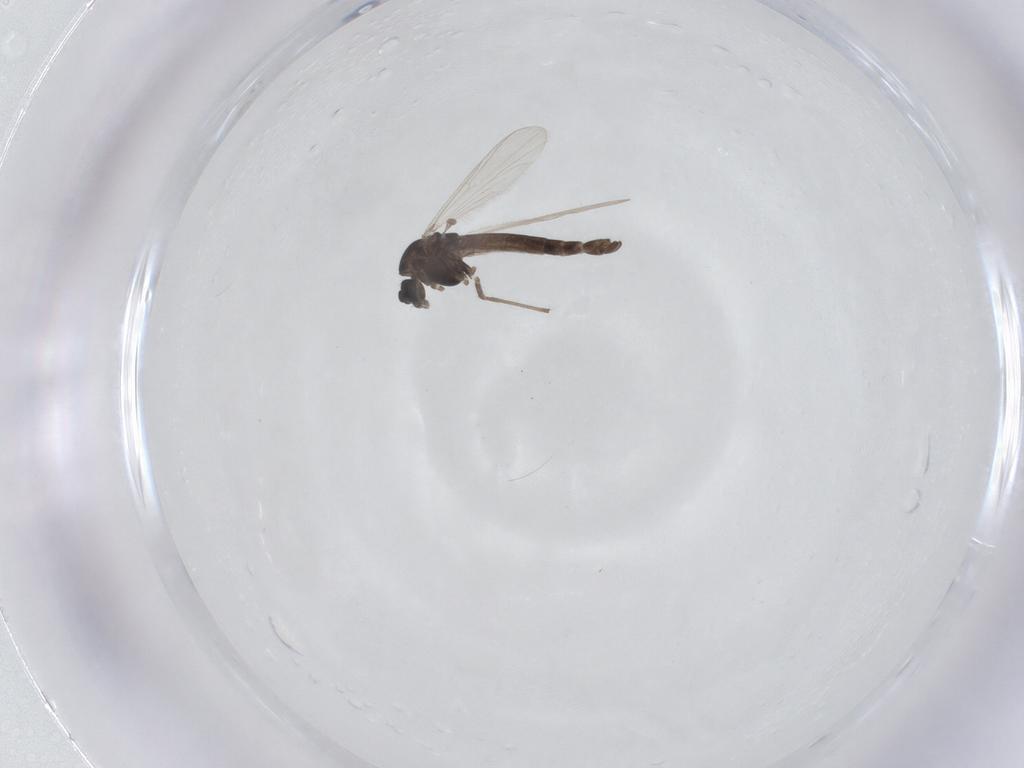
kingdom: Animalia
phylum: Arthropoda
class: Insecta
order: Diptera
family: Chironomidae
